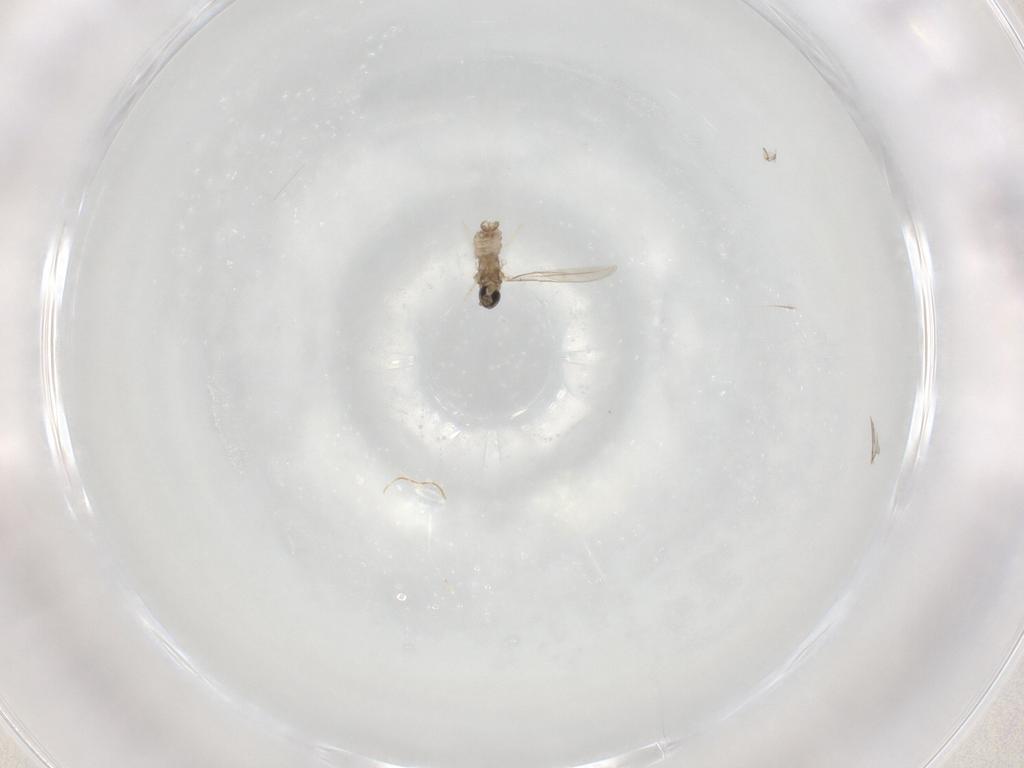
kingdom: Animalia
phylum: Arthropoda
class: Insecta
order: Diptera
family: Cecidomyiidae
